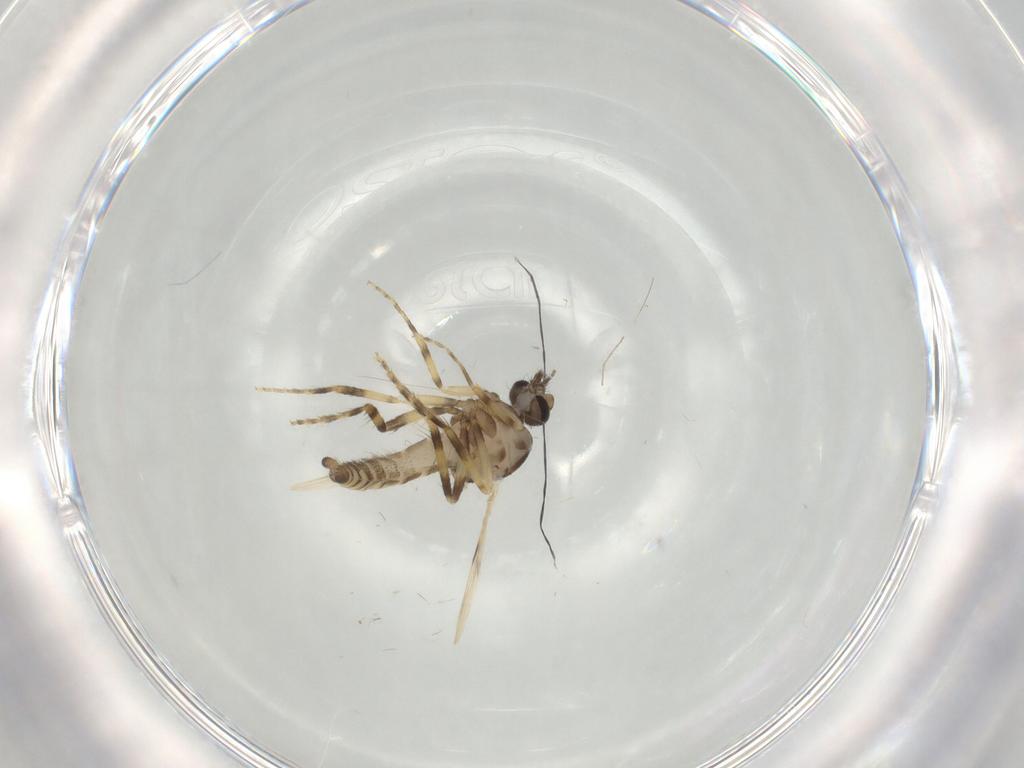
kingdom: Animalia
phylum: Arthropoda
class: Insecta
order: Diptera
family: Ceratopogonidae
